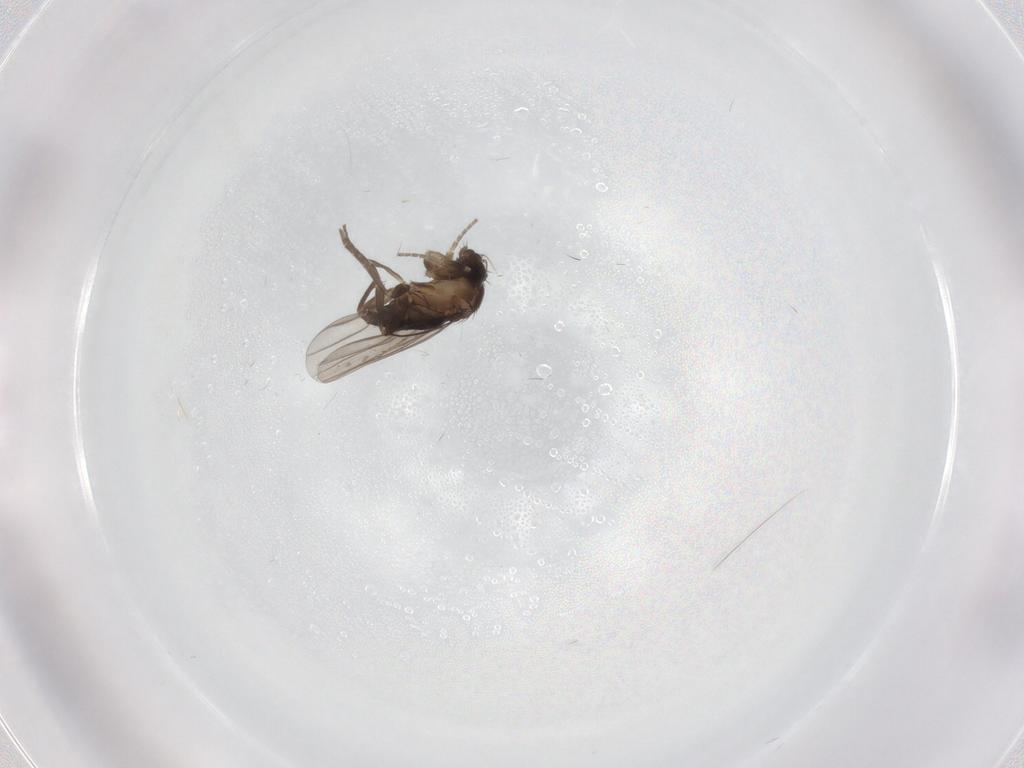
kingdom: Animalia
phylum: Arthropoda
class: Insecta
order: Diptera
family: Phoridae
